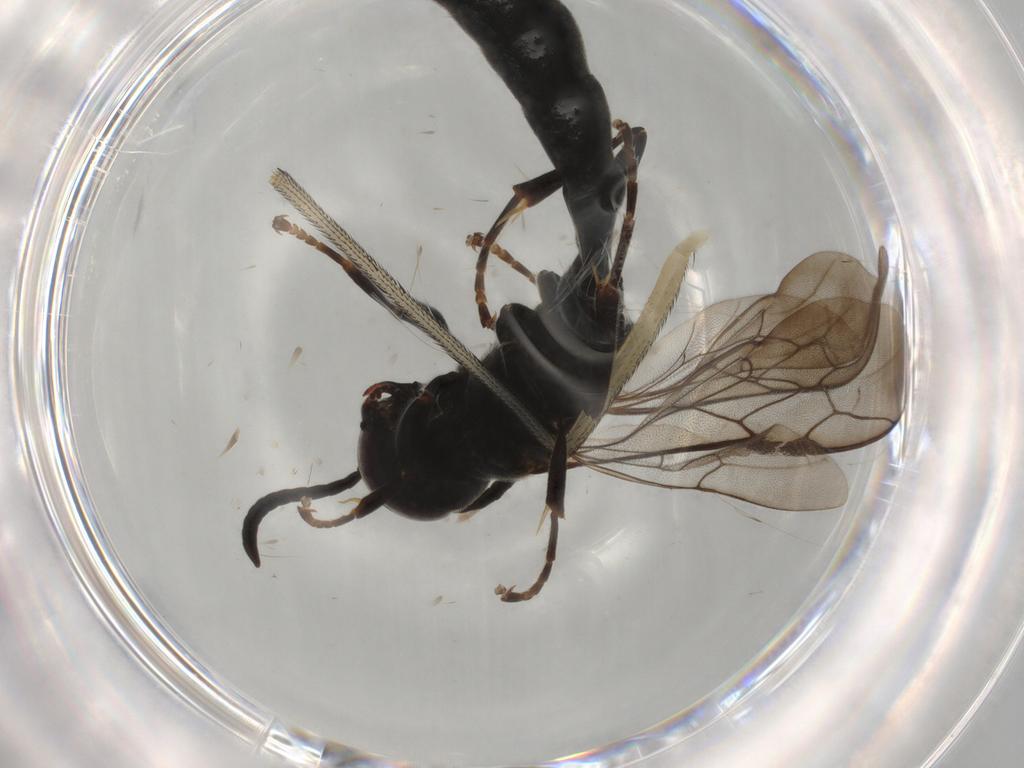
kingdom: Animalia
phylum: Arthropoda
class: Insecta
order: Hymenoptera
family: Crabronidae
